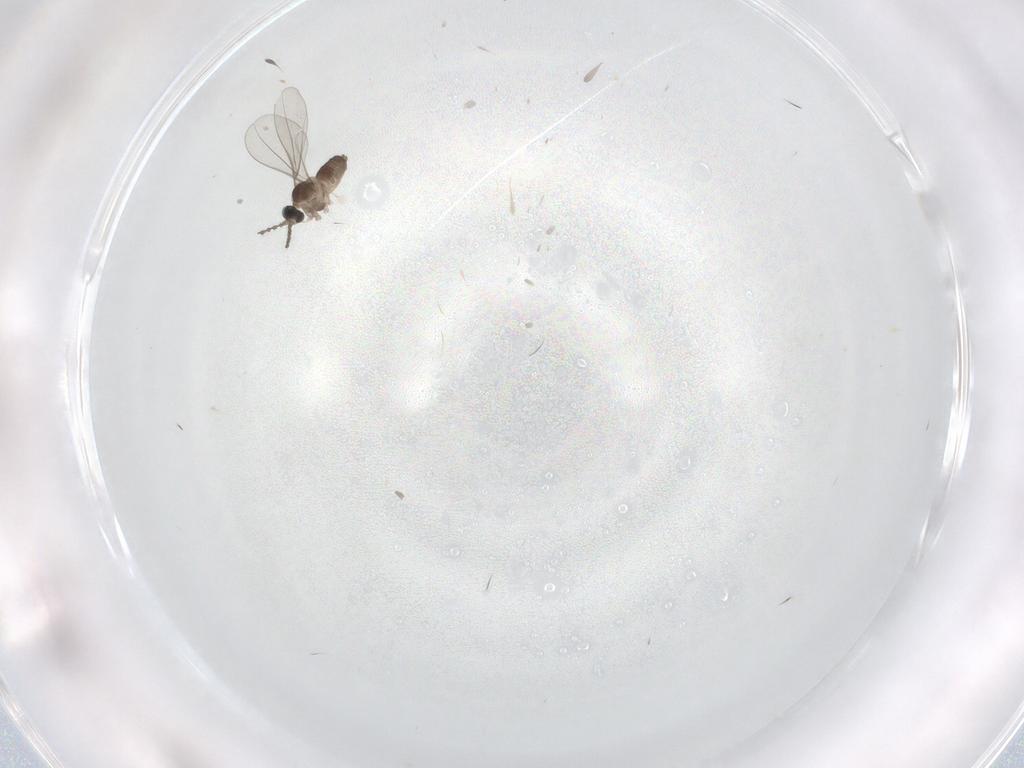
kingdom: Animalia
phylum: Arthropoda
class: Insecta
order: Diptera
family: Cecidomyiidae
